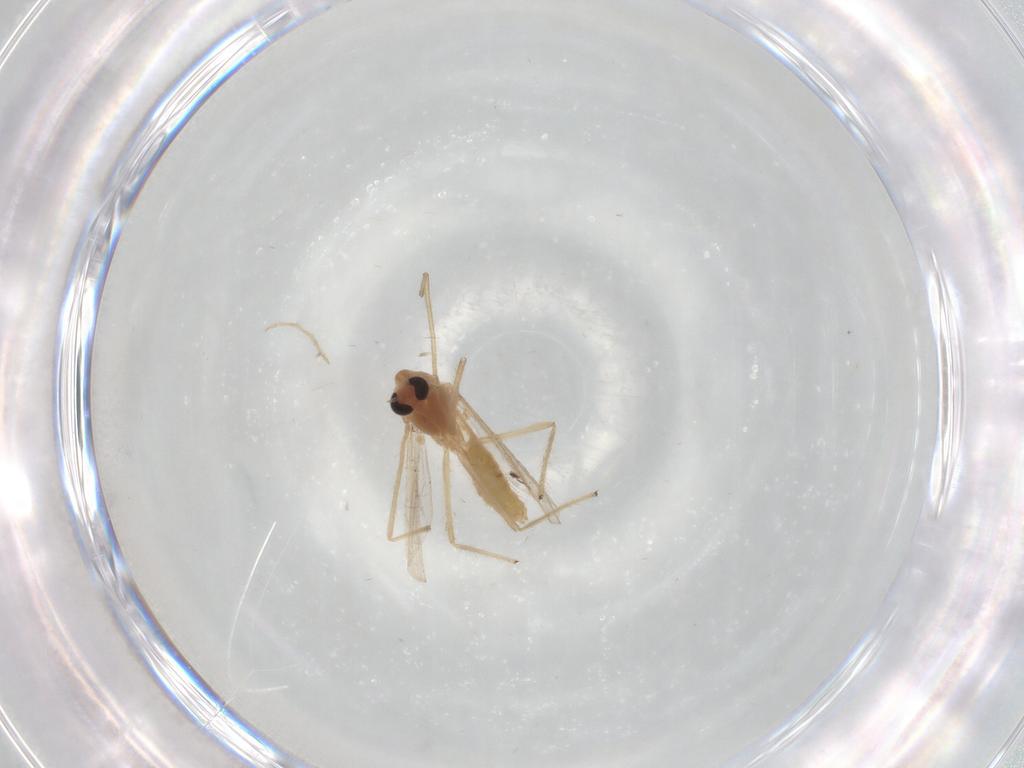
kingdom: Animalia
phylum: Arthropoda
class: Insecta
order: Diptera
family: Chironomidae
